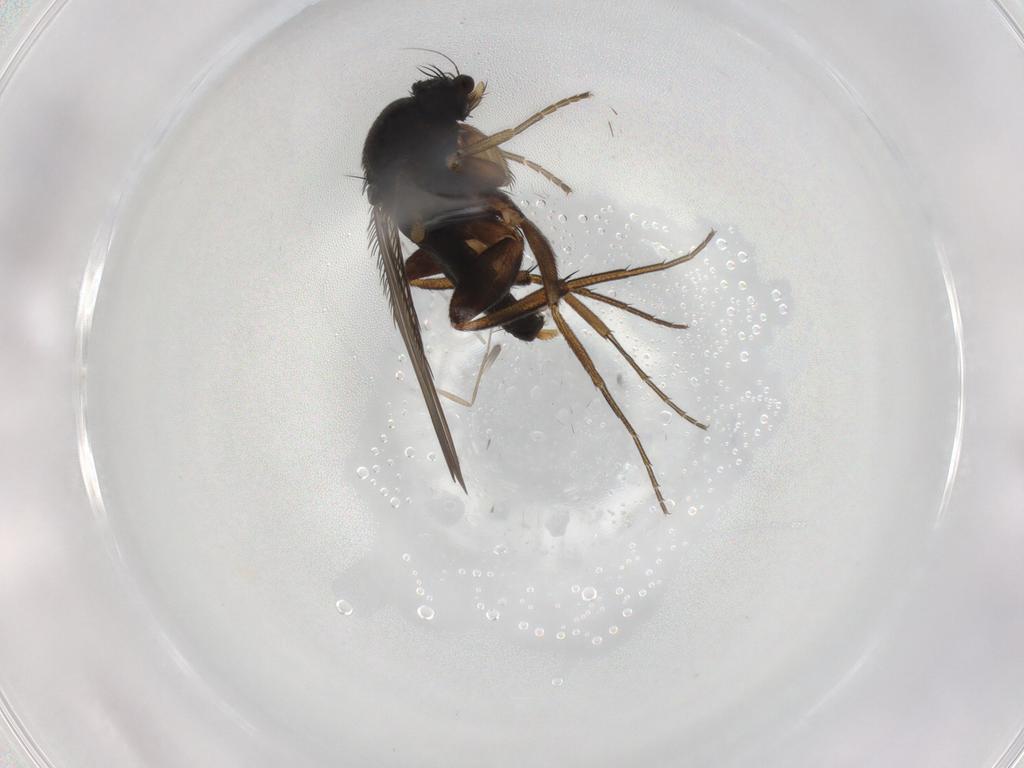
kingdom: Animalia
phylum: Arthropoda
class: Insecta
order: Diptera
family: Phoridae
